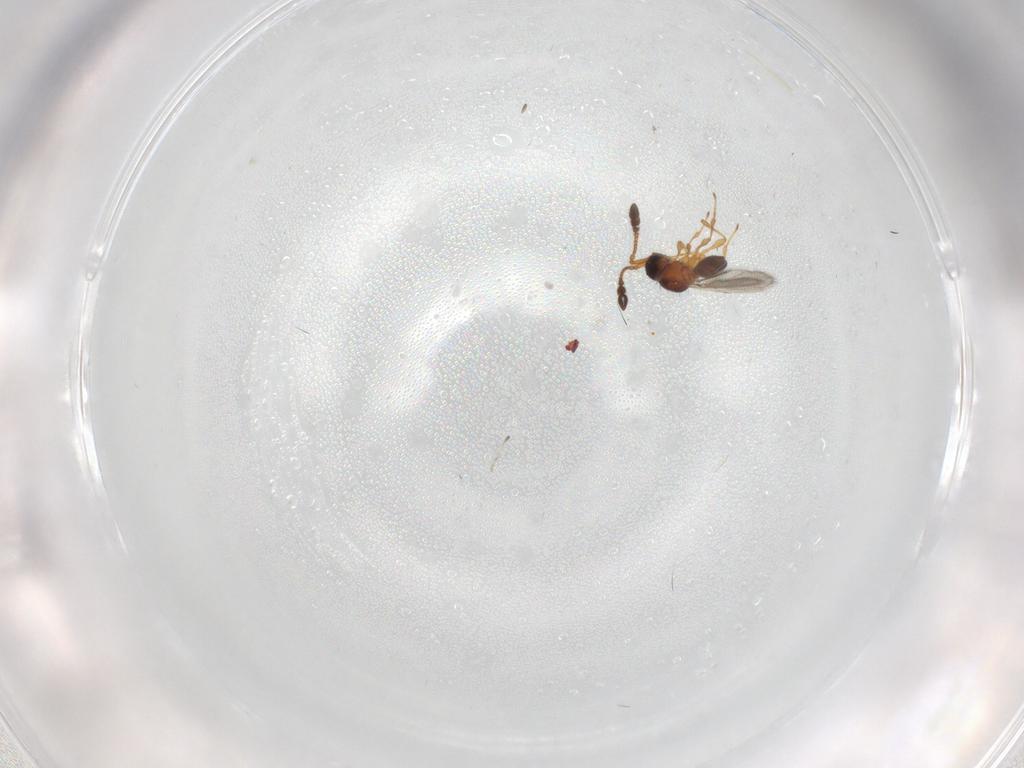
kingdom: Animalia
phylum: Arthropoda
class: Insecta
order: Hymenoptera
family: Diapriidae
